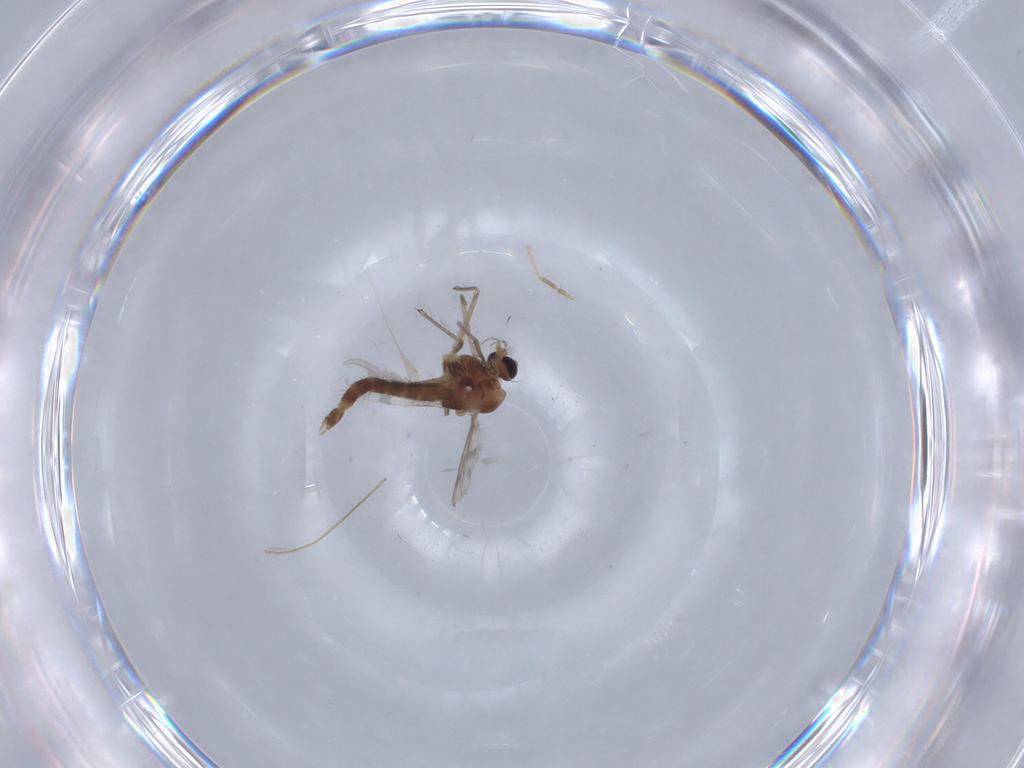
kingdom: Animalia
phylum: Arthropoda
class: Insecta
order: Diptera
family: Chironomidae
